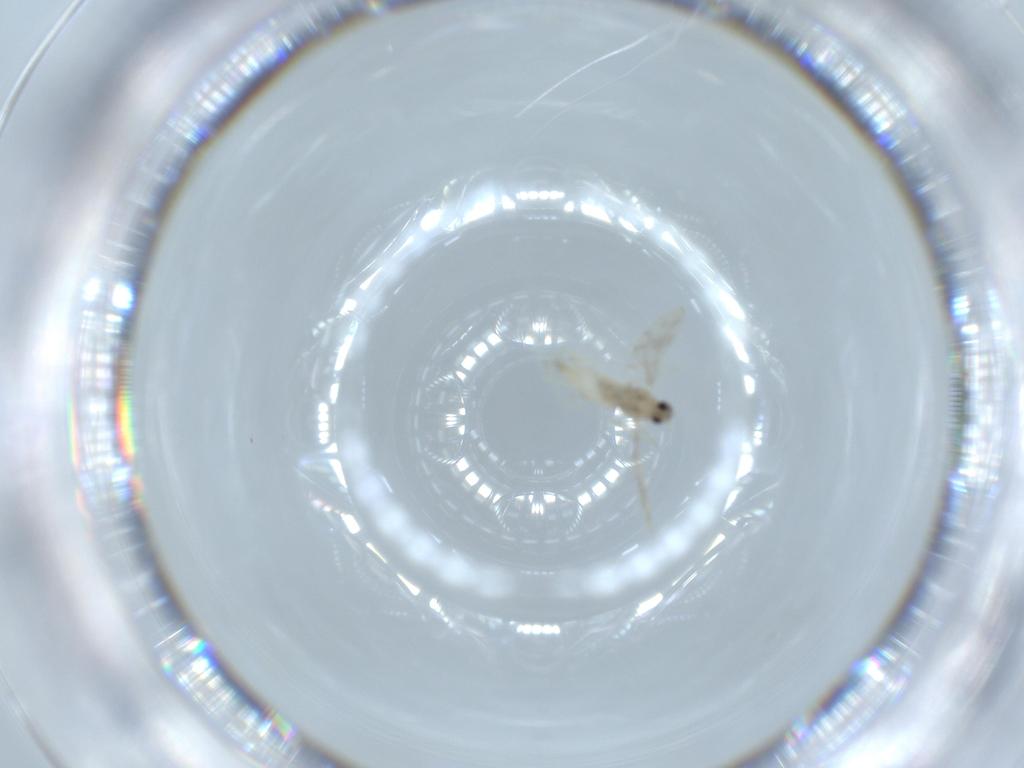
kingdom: Animalia
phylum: Arthropoda
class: Insecta
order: Diptera
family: Cecidomyiidae
